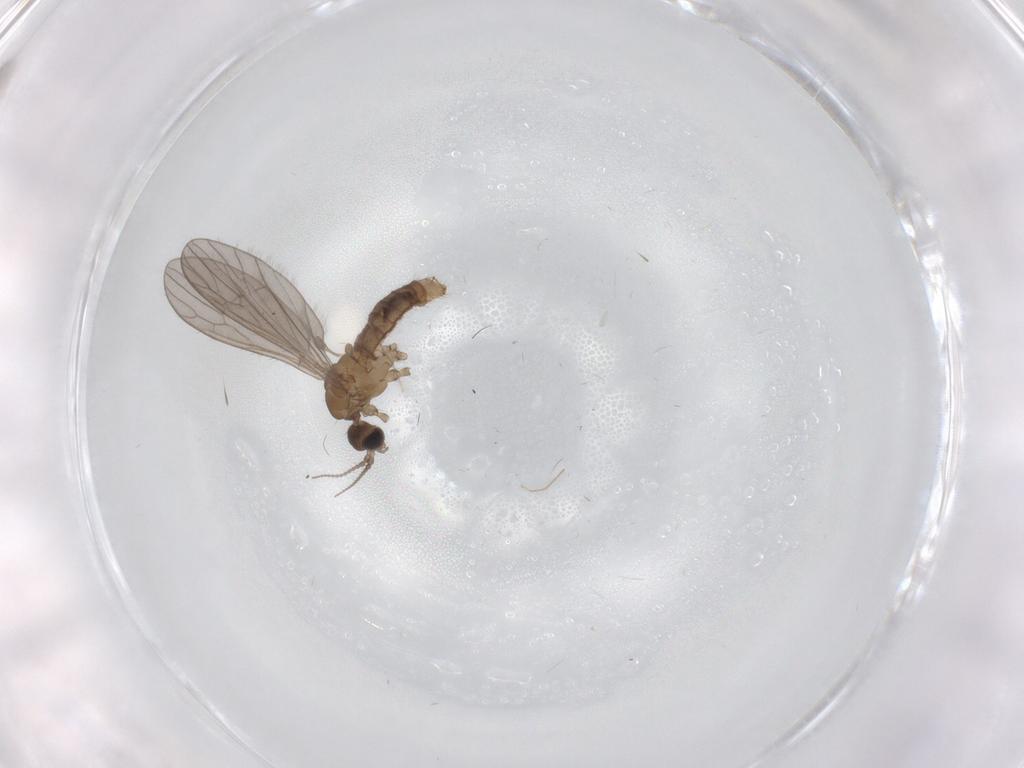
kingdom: Animalia
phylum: Arthropoda
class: Insecta
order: Diptera
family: Limoniidae
